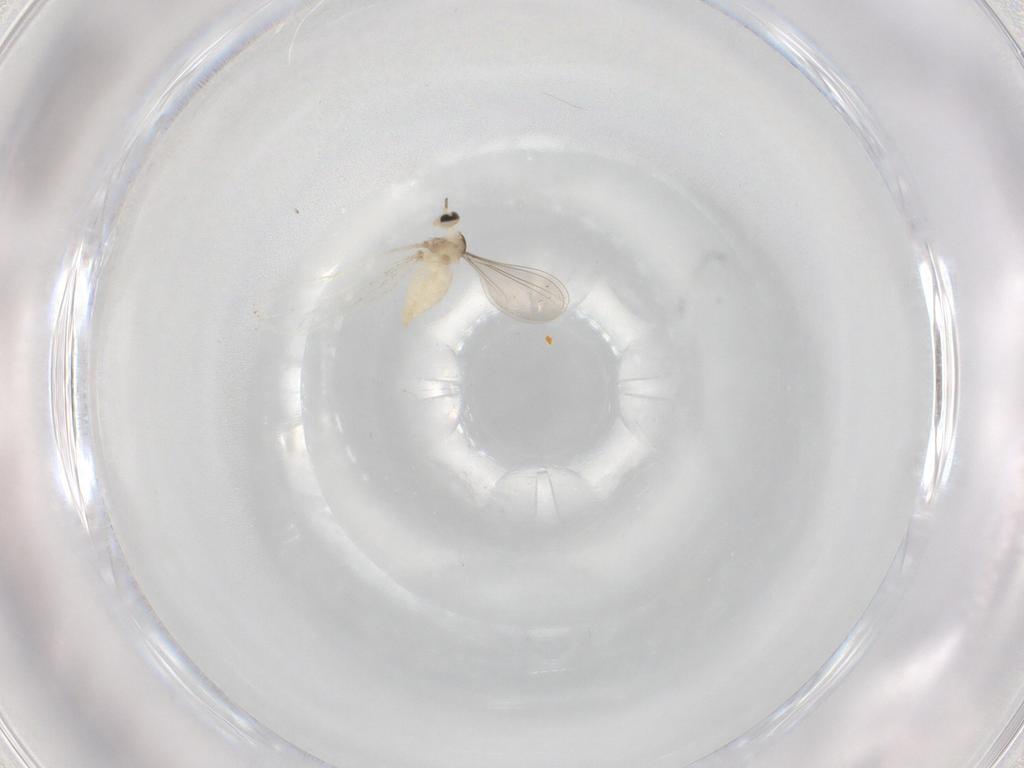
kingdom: Animalia
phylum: Arthropoda
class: Insecta
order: Diptera
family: Cecidomyiidae
